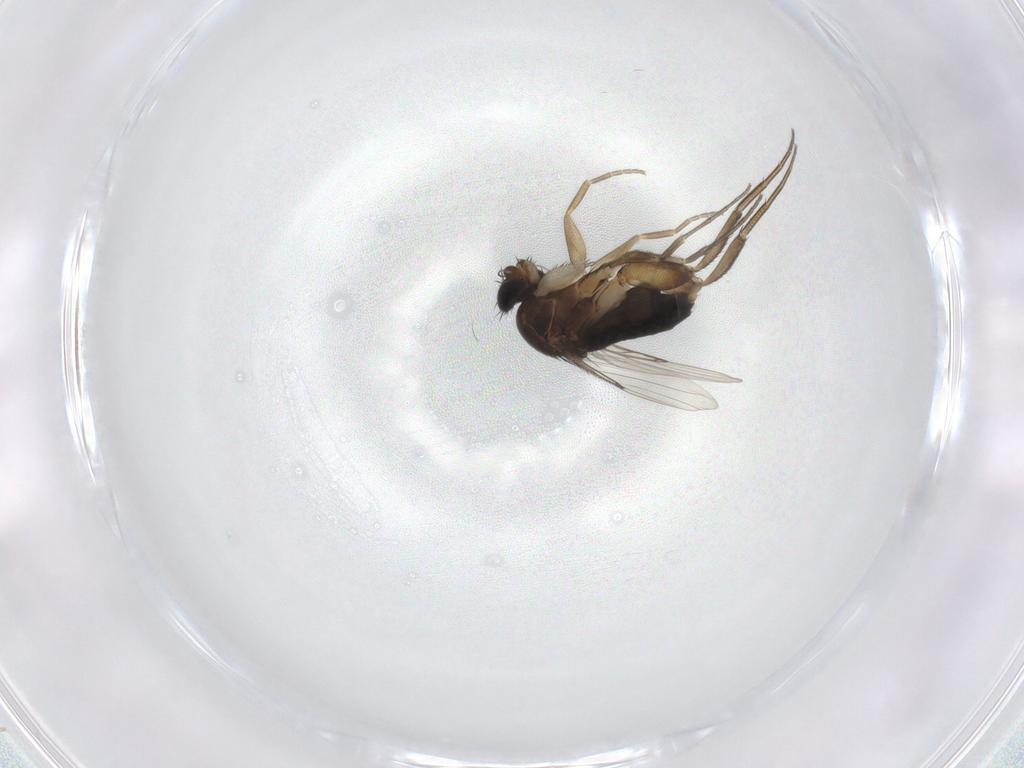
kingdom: Animalia
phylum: Arthropoda
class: Insecta
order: Diptera
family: Phoridae
